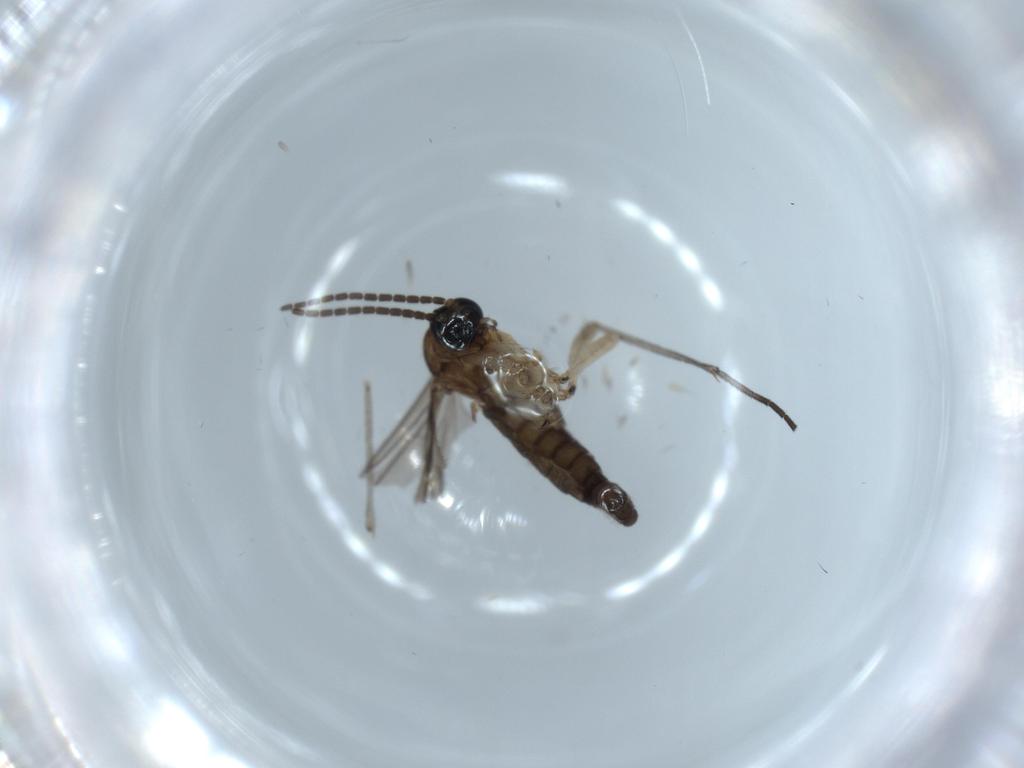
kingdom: Animalia
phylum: Arthropoda
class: Insecta
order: Diptera
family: Sciaridae
